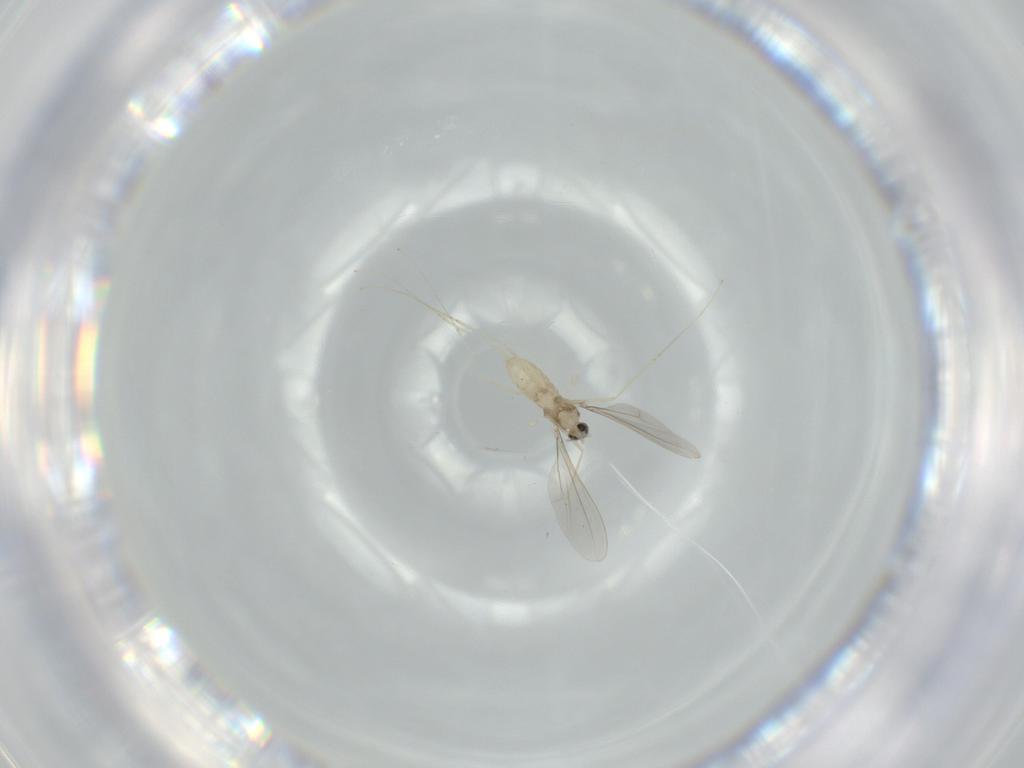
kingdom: Animalia
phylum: Arthropoda
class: Insecta
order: Diptera
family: Cecidomyiidae
